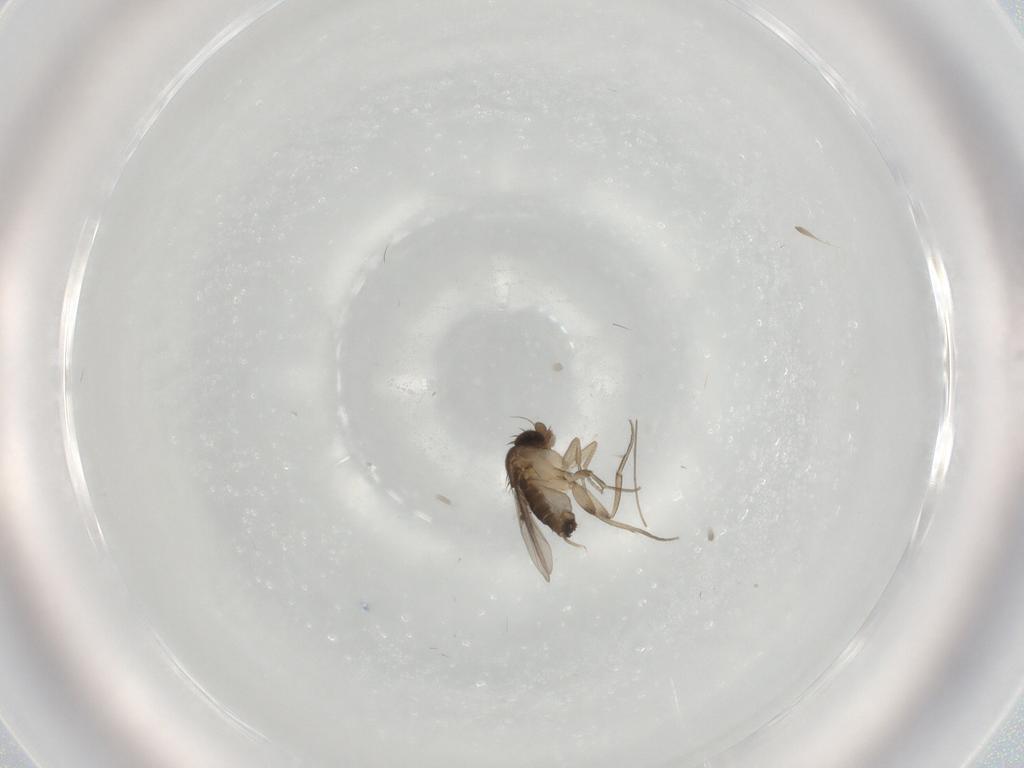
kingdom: Animalia
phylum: Arthropoda
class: Insecta
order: Diptera
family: Phoridae
